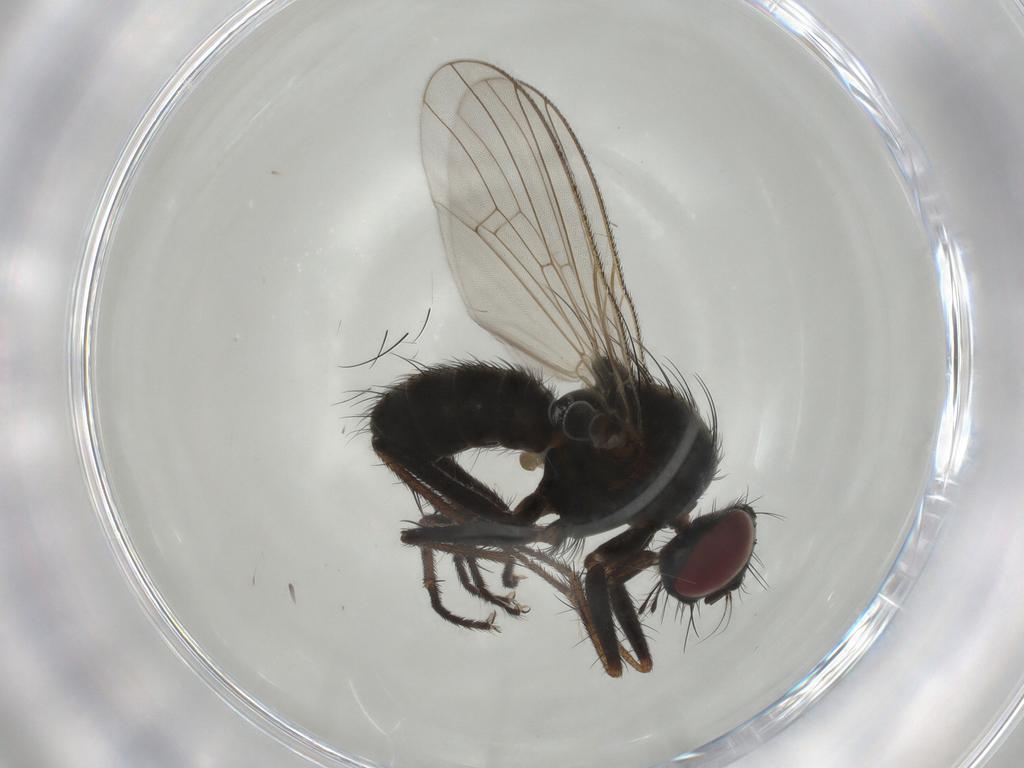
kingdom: Animalia
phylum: Arthropoda
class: Insecta
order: Diptera
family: Muscidae
